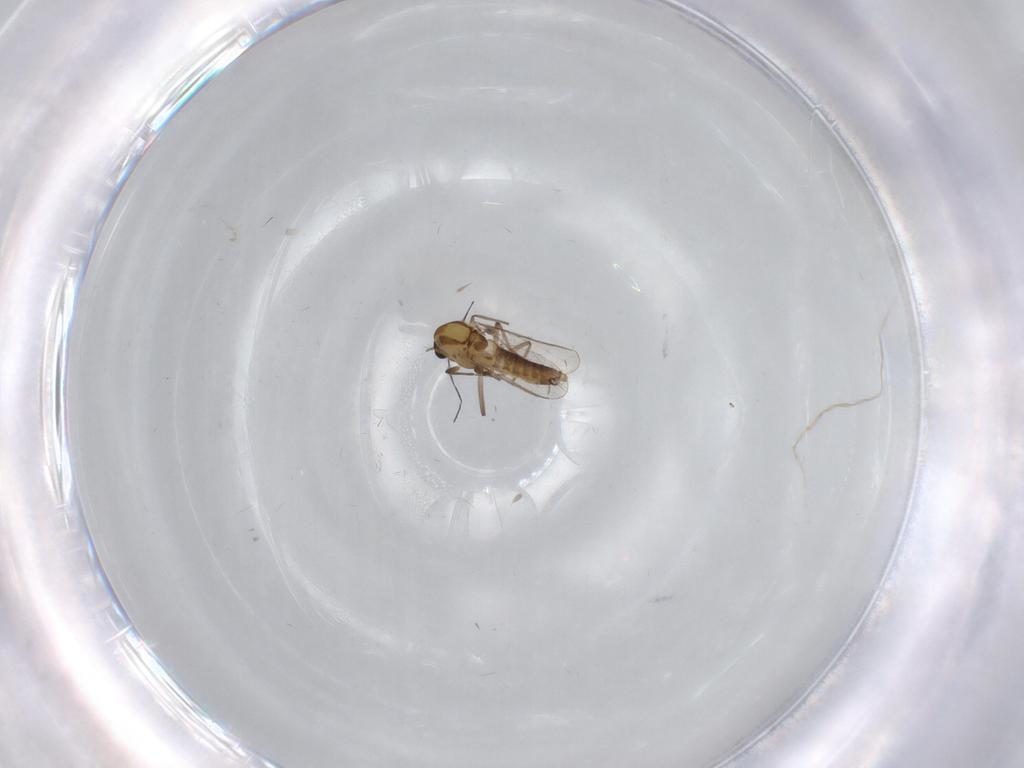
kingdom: Animalia
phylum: Arthropoda
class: Insecta
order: Diptera
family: Chironomidae
